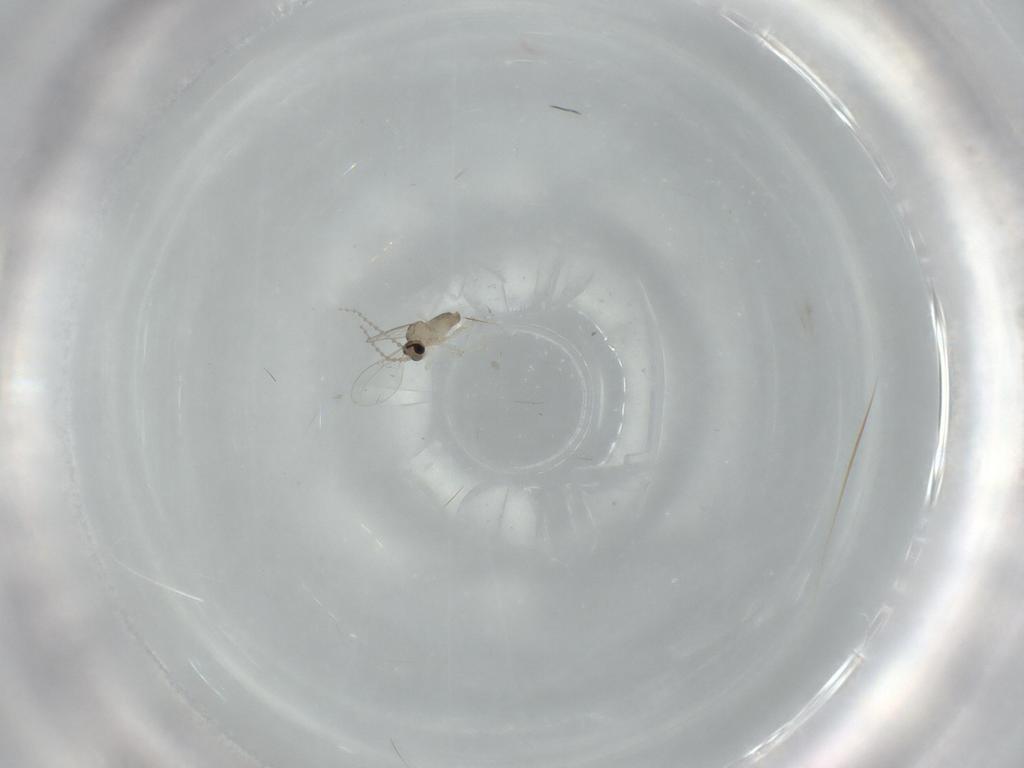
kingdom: Animalia
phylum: Arthropoda
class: Insecta
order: Diptera
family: Cecidomyiidae
